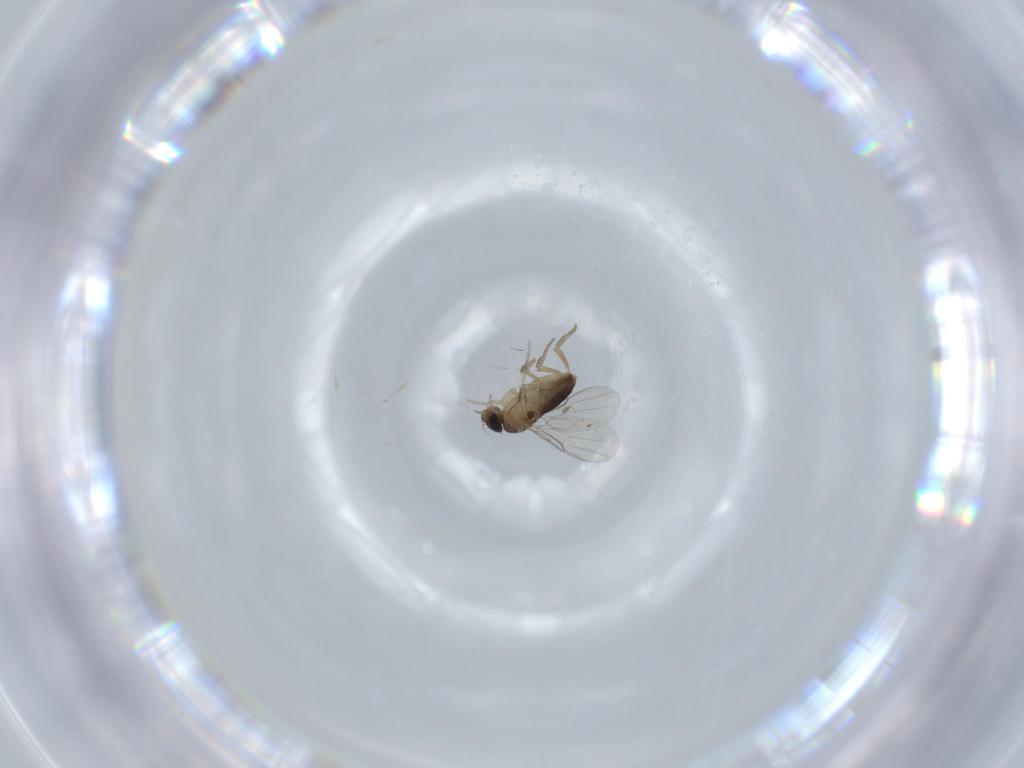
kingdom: Animalia
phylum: Arthropoda
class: Insecta
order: Diptera
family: Phoridae
